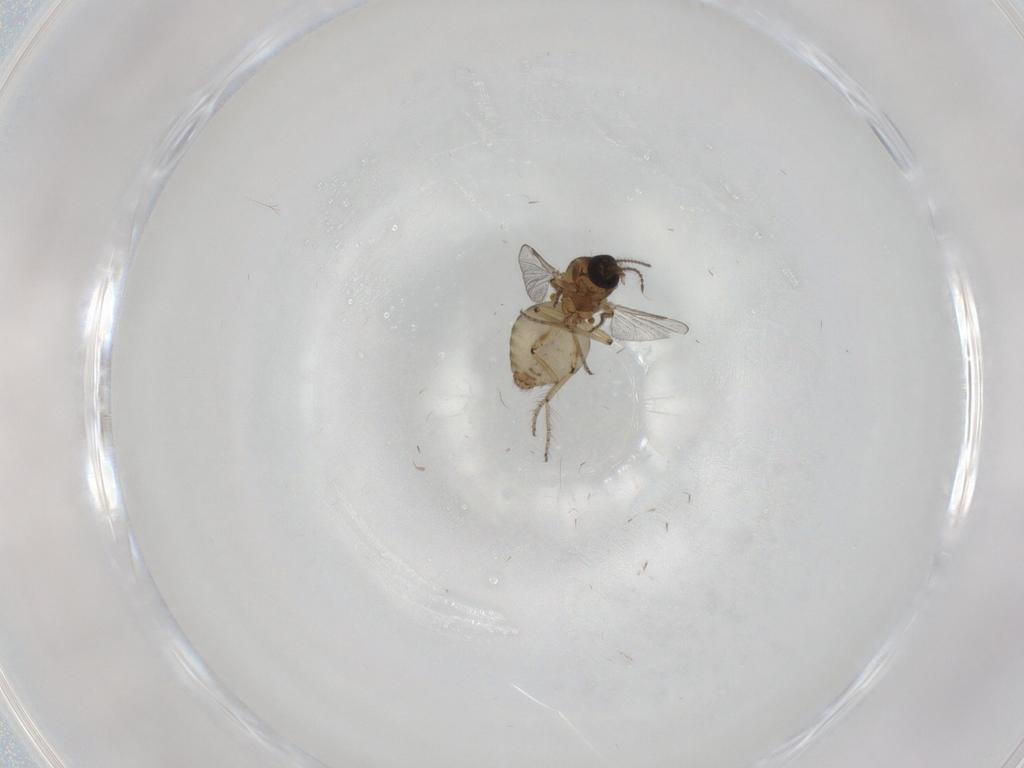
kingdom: Animalia
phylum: Arthropoda
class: Insecta
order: Diptera
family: Ceratopogonidae
